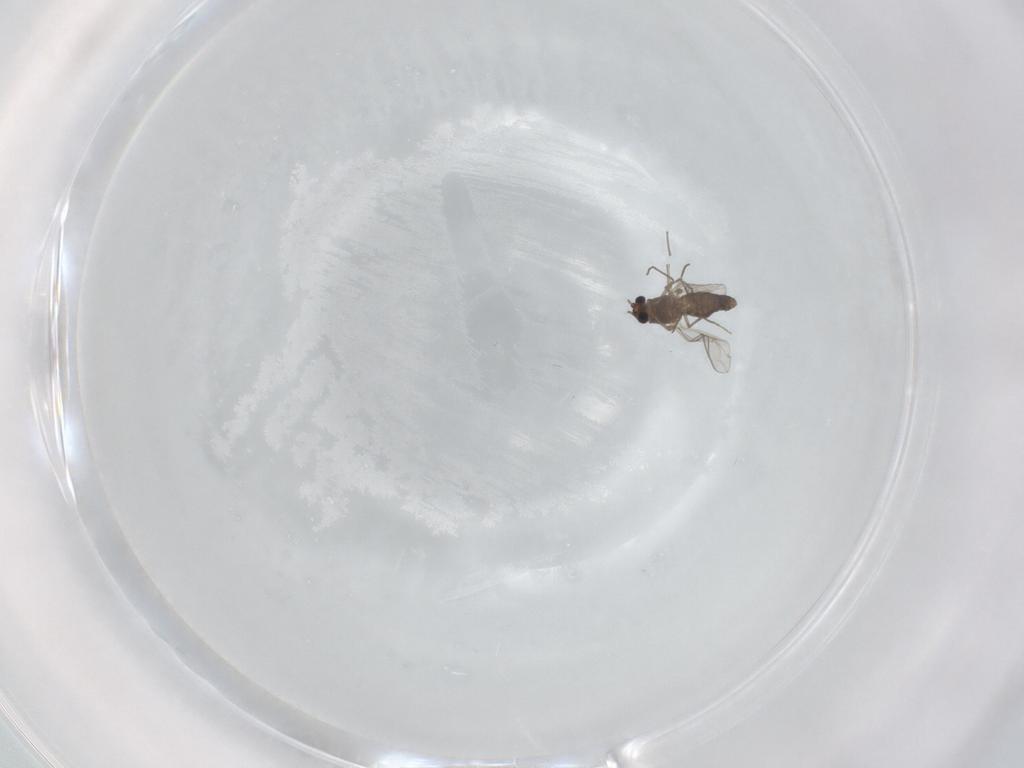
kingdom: Animalia
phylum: Arthropoda
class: Insecta
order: Diptera
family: Chironomidae
